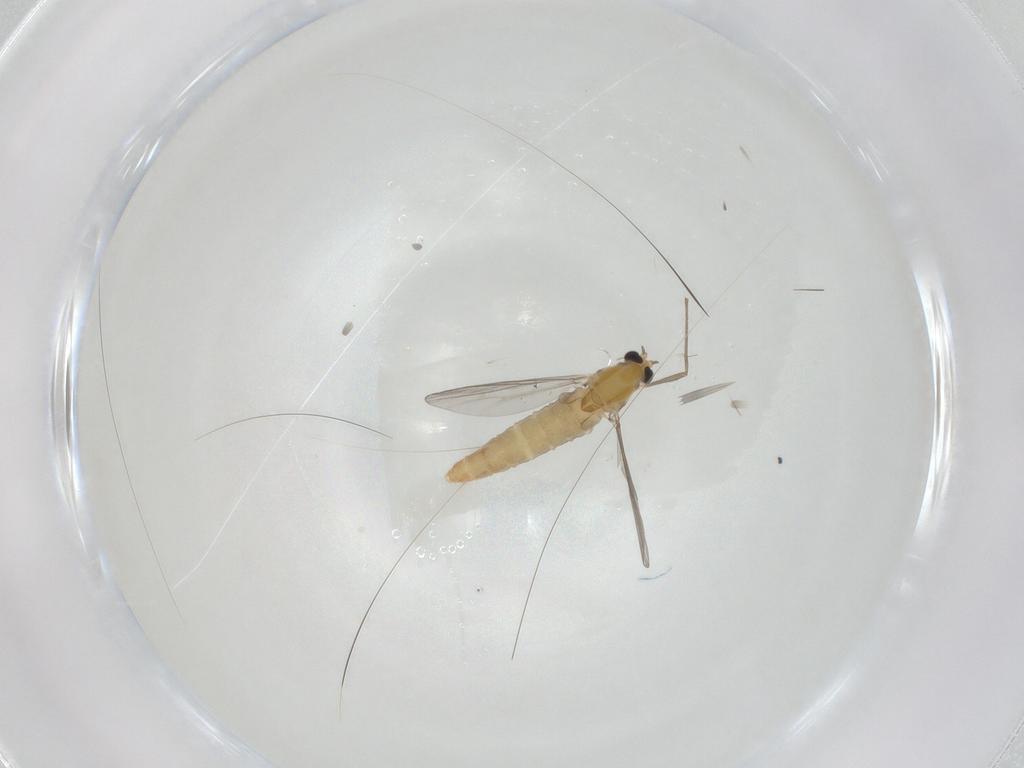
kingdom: Animalia
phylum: Arthropoda
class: Insecta
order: Diptera
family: Chironomidae
